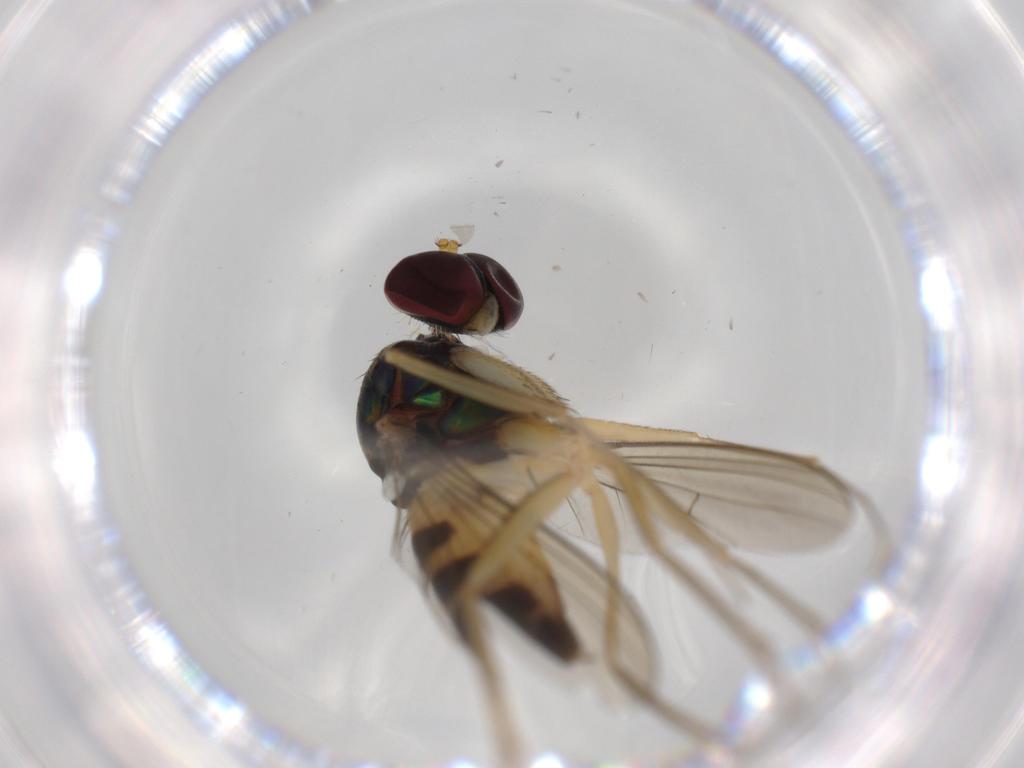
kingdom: Animalia
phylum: Arthropoda
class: Insecta
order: Diptera
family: Dolichopodidae
